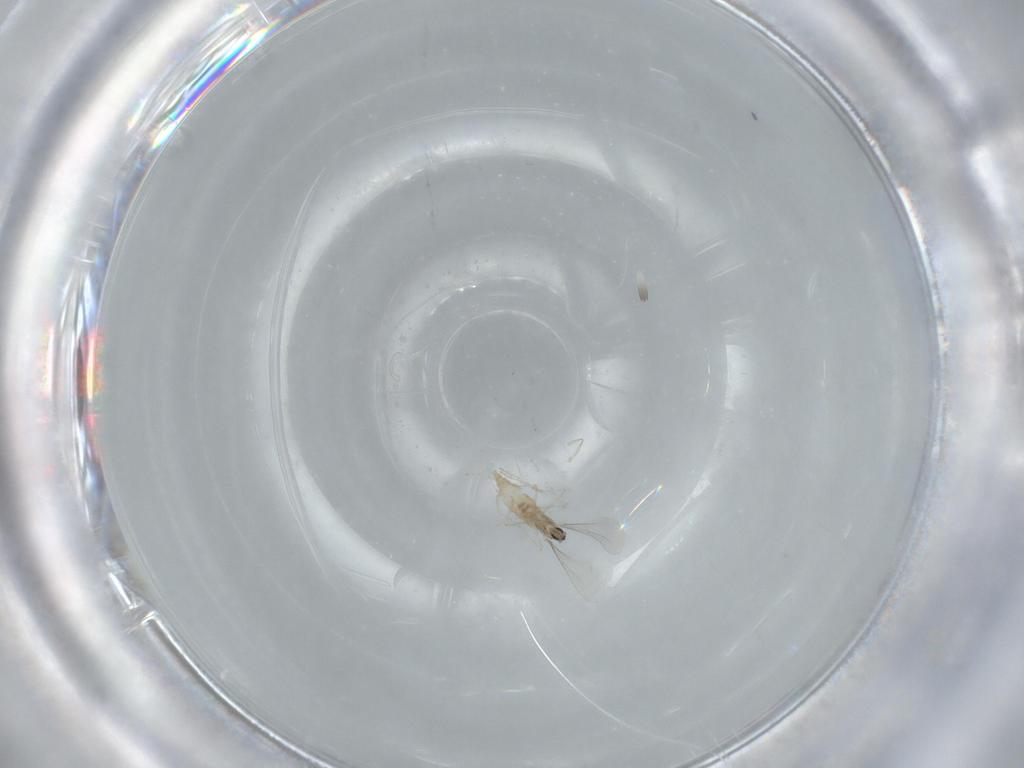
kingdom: Animalia
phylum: Arthropoda
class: Insecta
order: Diptera
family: Cecidomyiidae
